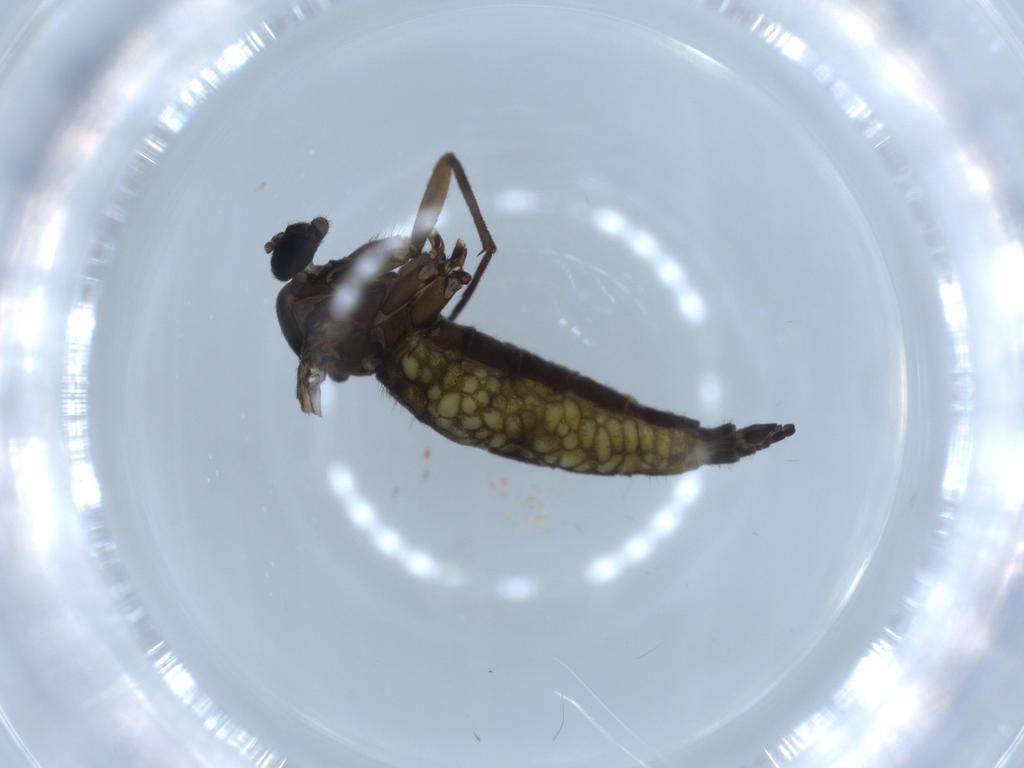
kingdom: Animalia
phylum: Arthropoda
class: Insecta
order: Diptera
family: Sciaridae
